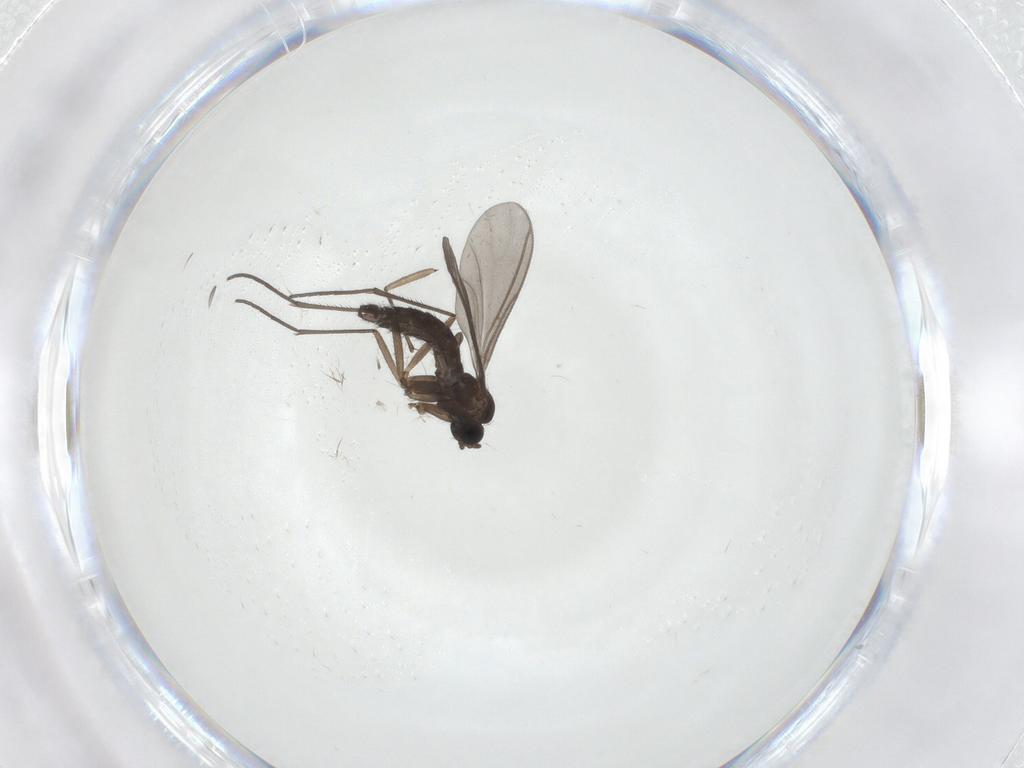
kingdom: Animalia
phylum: Arthropoda
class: Insecta
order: Diptera
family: Sciaridae
